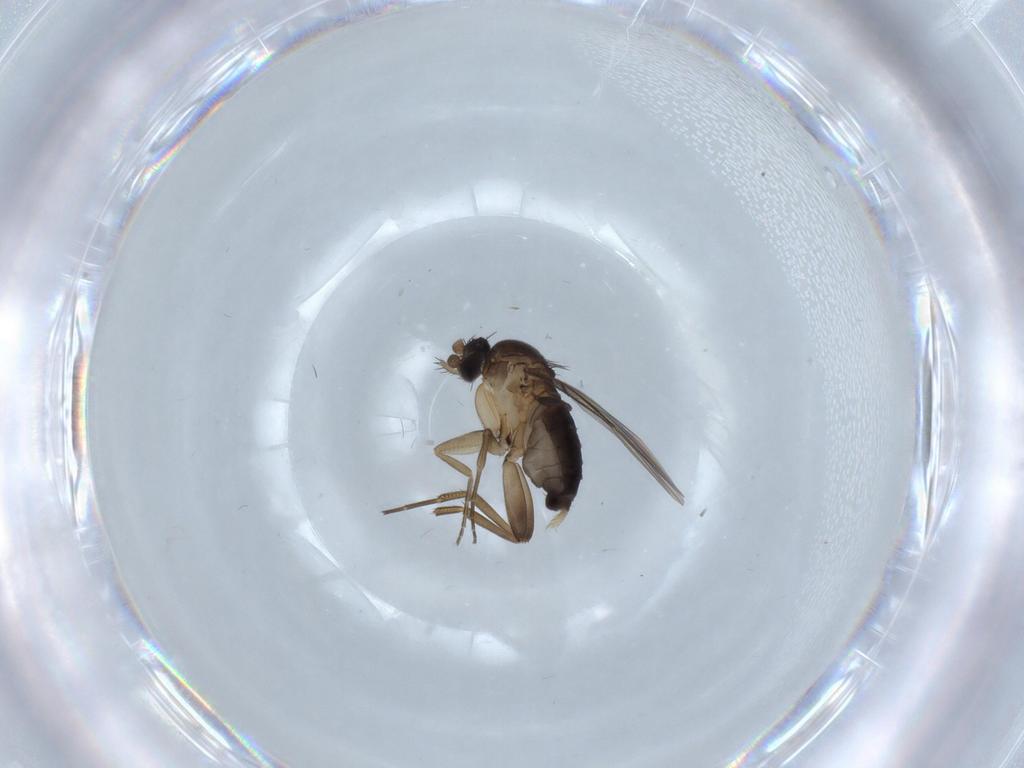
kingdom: Animalia
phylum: Arthropoda
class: Insecta
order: Diptera
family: Phoridae
